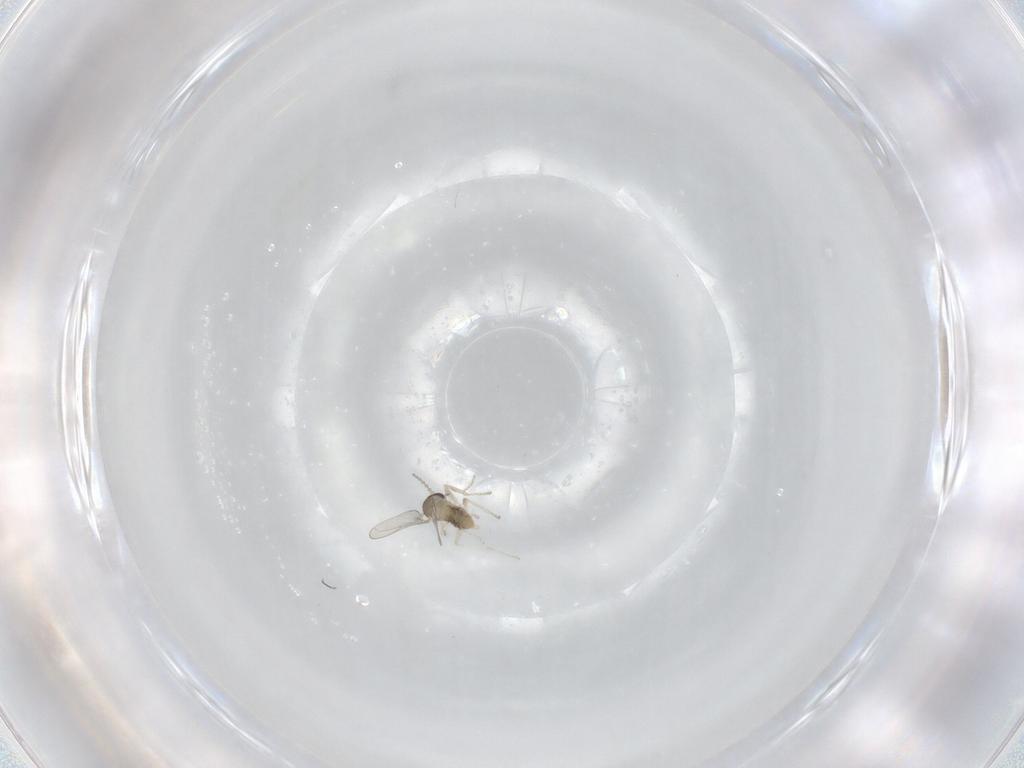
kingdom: Animalia
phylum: Arthropoda
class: Insecta
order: Diptera
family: Cecidomyiidae
